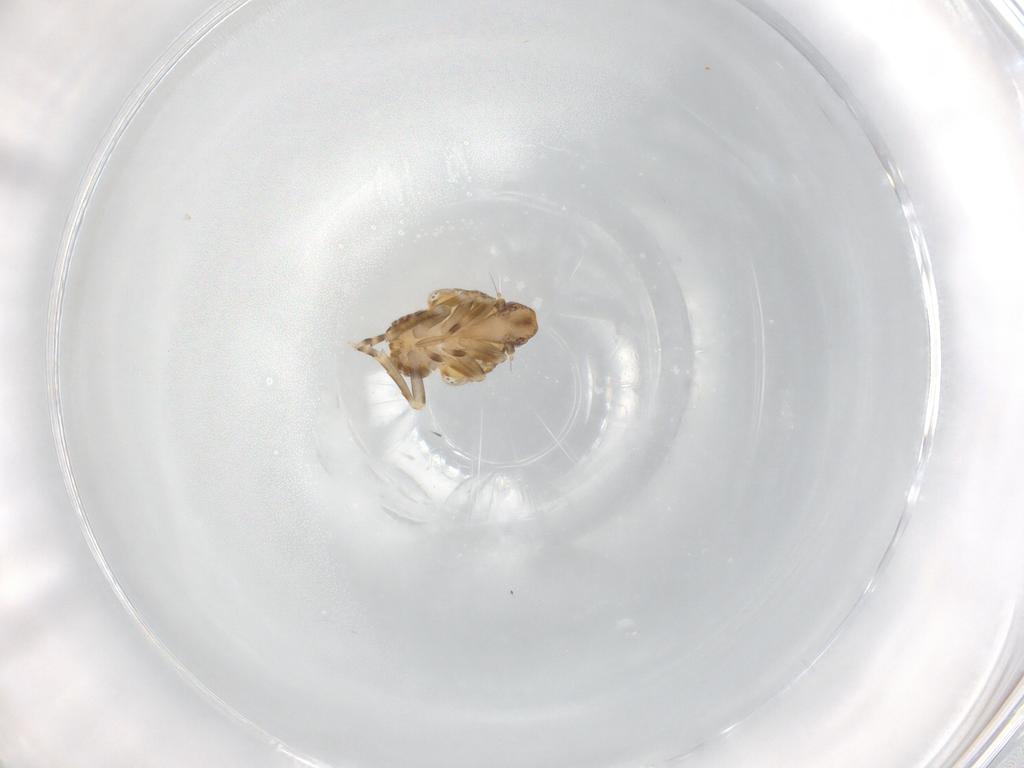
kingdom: Animalia
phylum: Arthropoda
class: Insecta
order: Hemiptera
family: Flatidae
